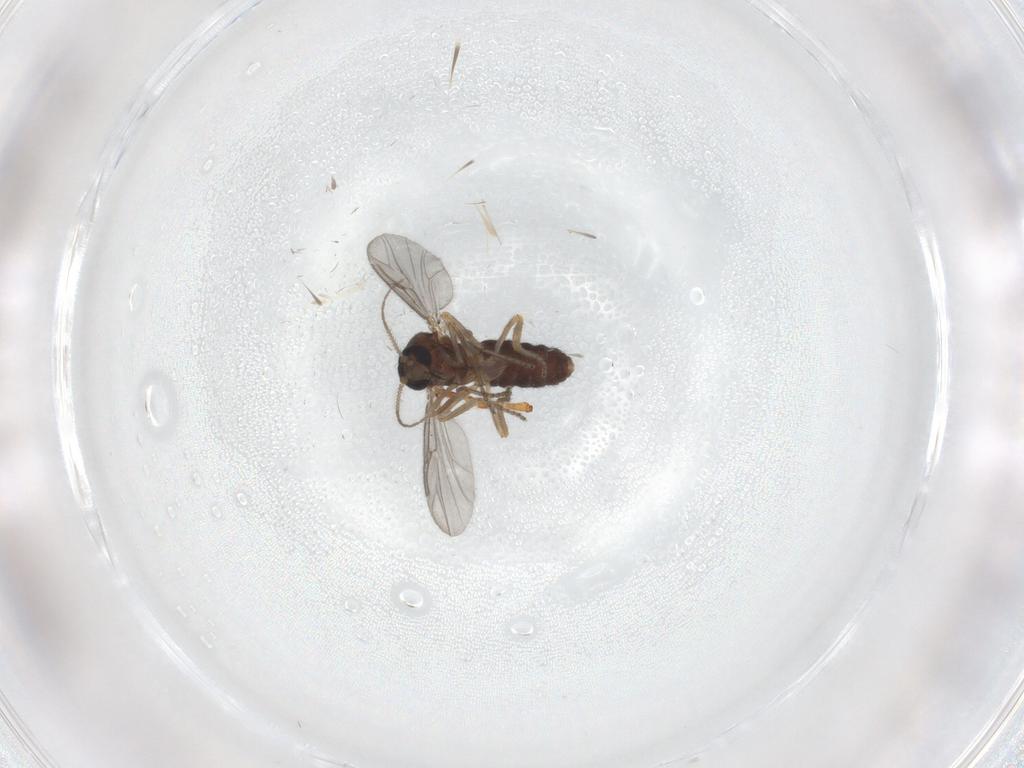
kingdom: Animalia
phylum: Arthropoda
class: Insecta
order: Diptera
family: Ceratopogonidae
